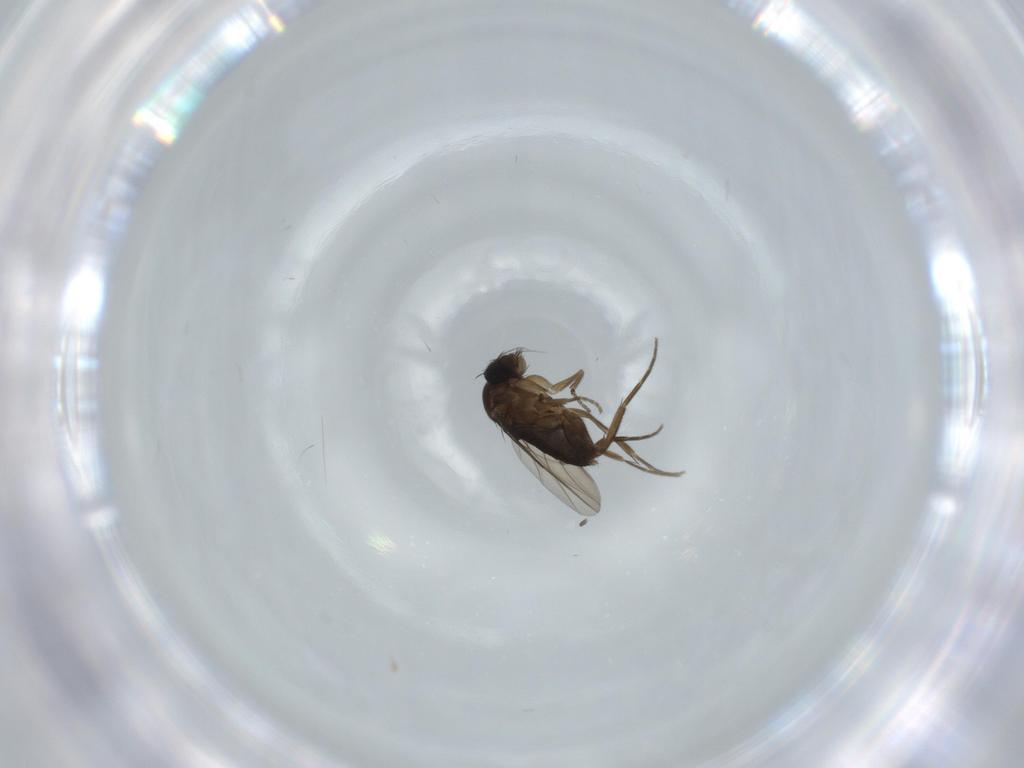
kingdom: Animalia
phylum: Arthropoda
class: Insecta
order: Diptera
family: Phoridae
